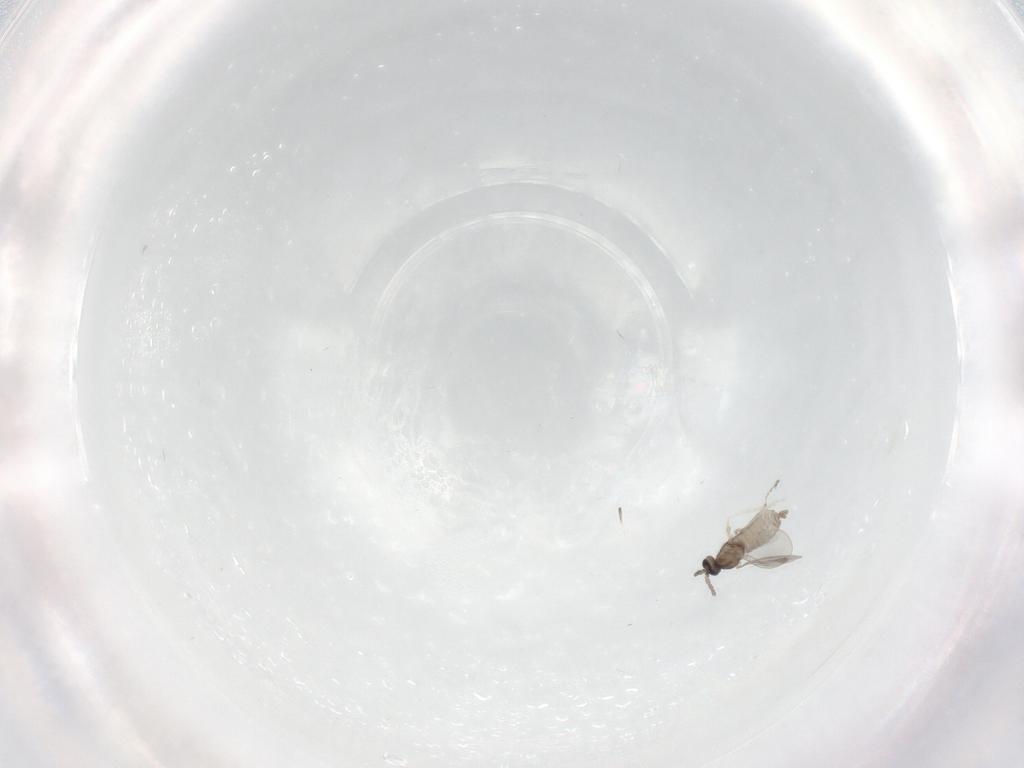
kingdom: Animalia
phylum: Arthropoda
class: Insecta
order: Diptera
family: Cecidomyiidae
